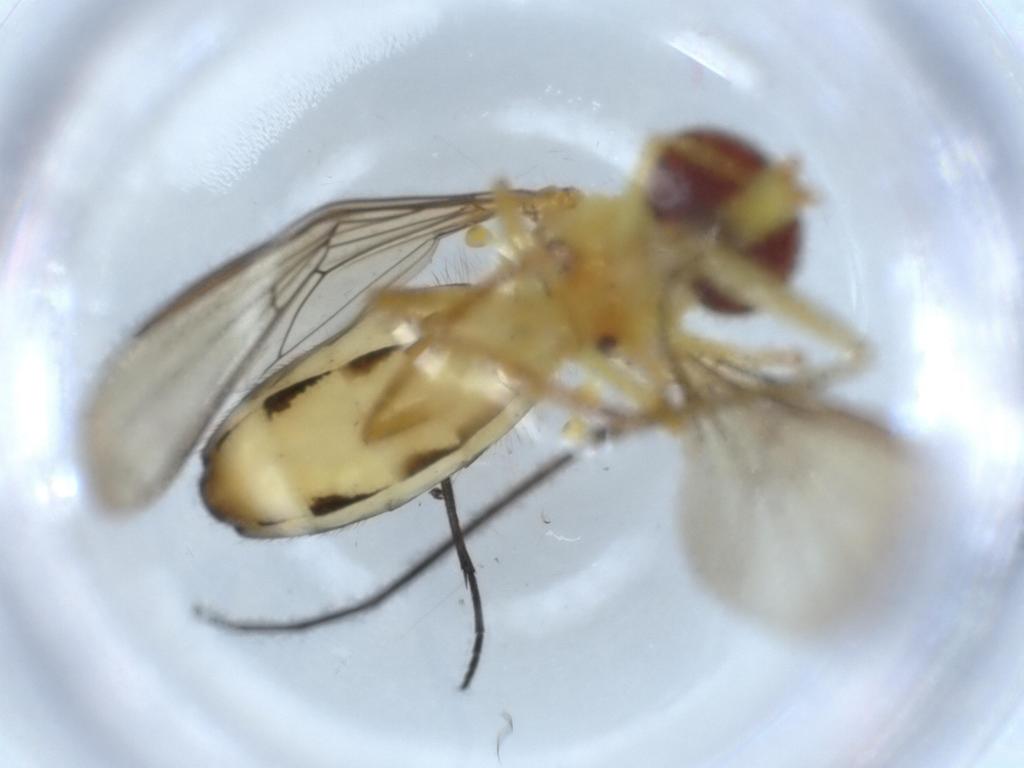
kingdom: Animalia
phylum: Arthropoda
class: Insecta
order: Diptera
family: Syrphidae
